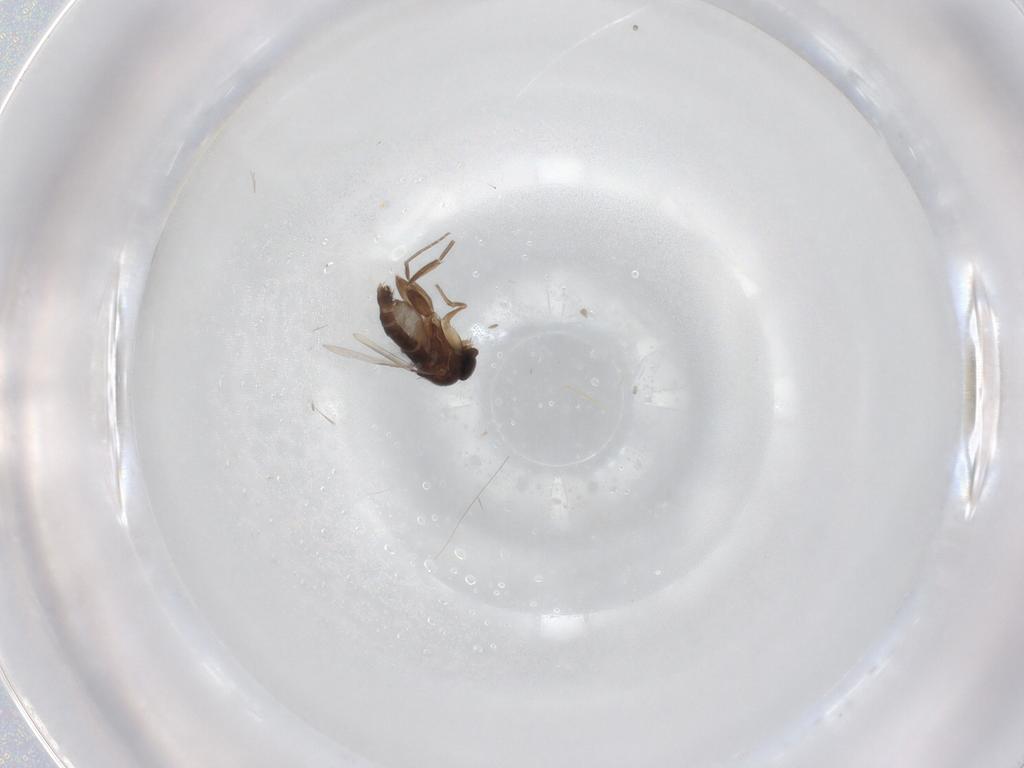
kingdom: Animalia
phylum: Arthropoda
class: Insecta
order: Diptera
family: Phoridae
